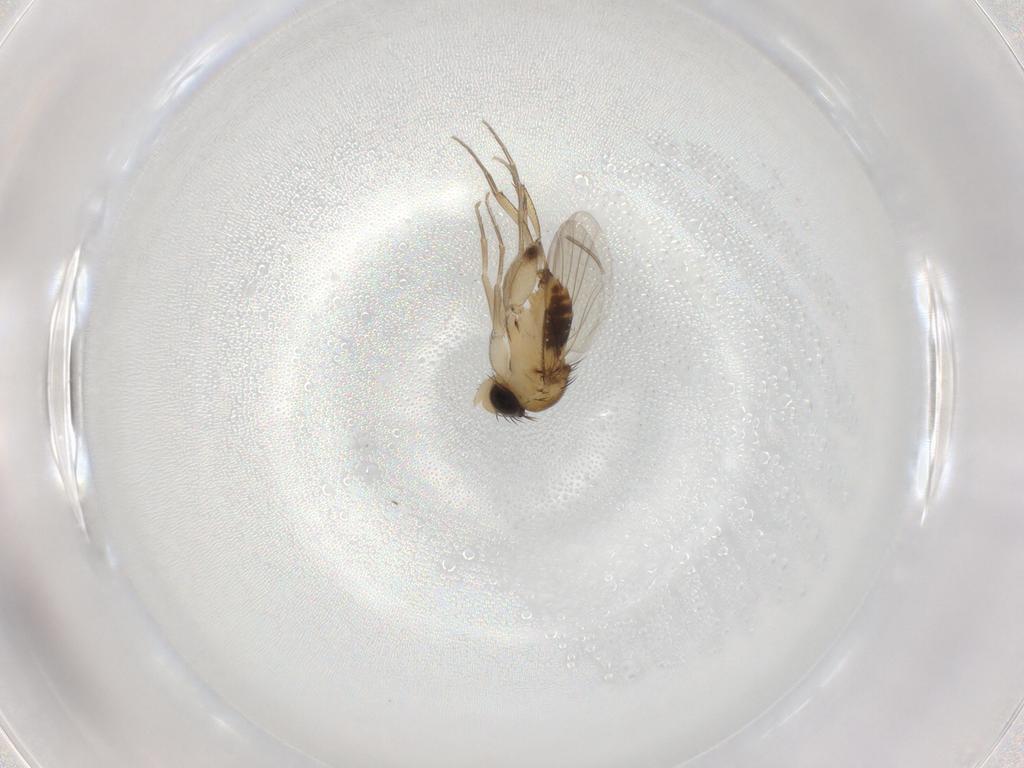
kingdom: Animalia
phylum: Arthropoda
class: Insecta
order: Diptera
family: Phoridae
